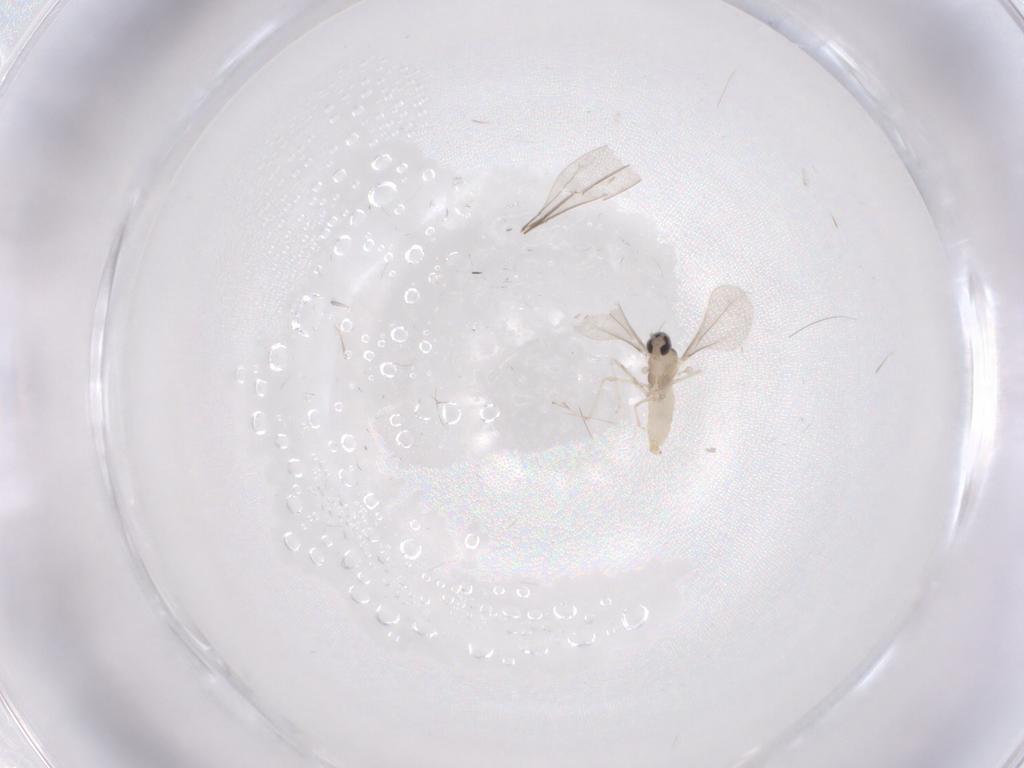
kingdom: Animalia
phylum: Arthropoda
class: Insecta
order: Diptera
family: Cecidomyiidae
